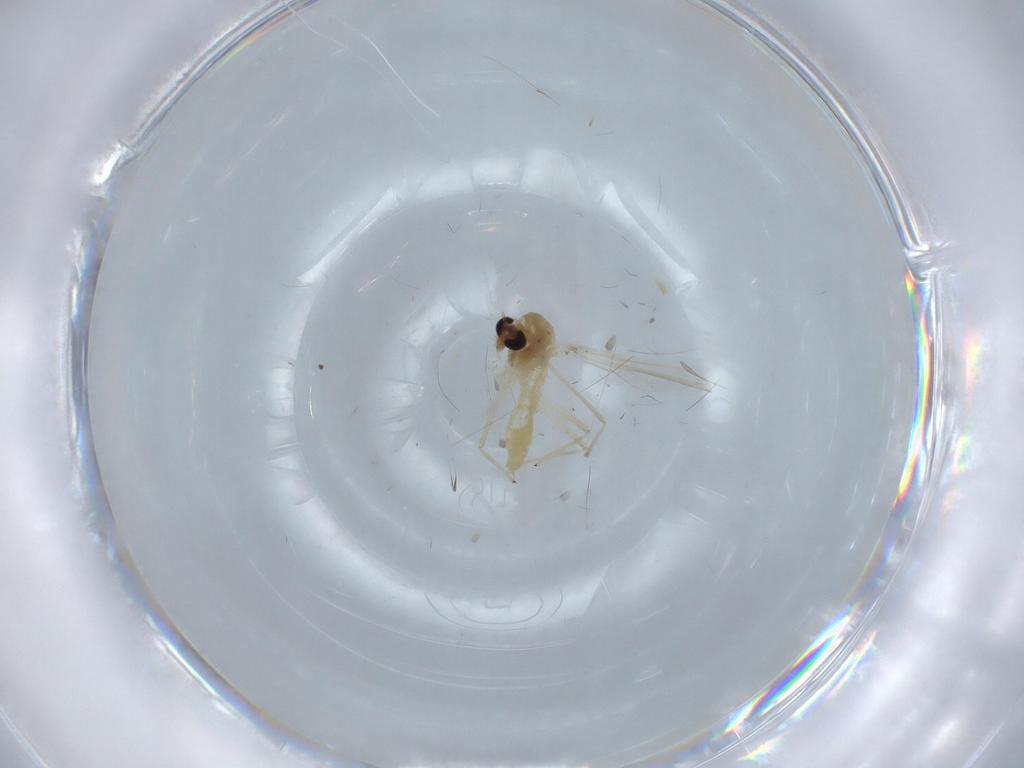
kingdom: Animalia
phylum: Arthropoda
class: Insecta
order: Diptera
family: Chironomidae
